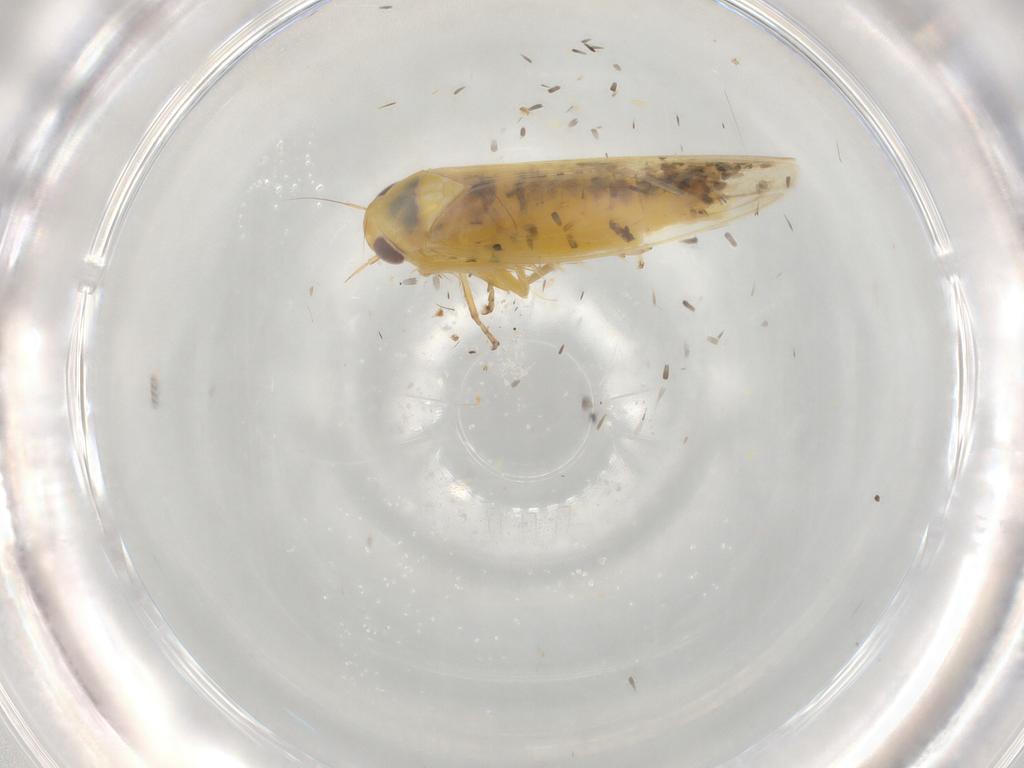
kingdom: Animalia
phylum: Arthropoda
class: Insecta
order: Hemiptera
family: Cicadellidae
